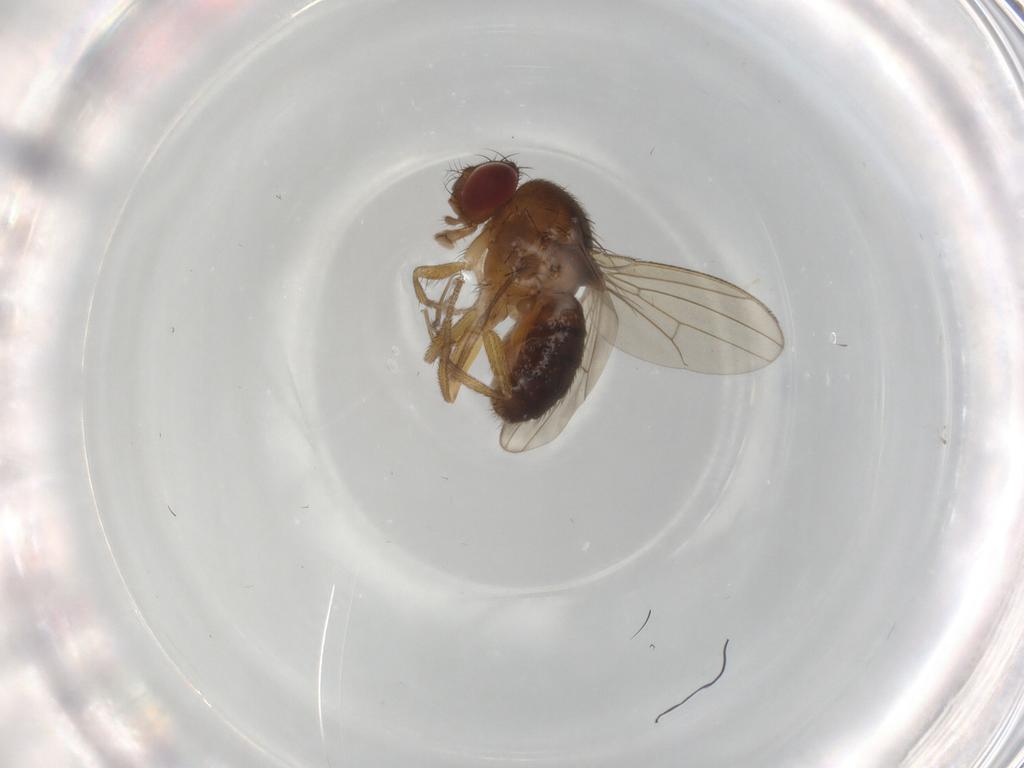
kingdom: Animalia
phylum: Arthropoda
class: Insecta
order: Diptera
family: Drosophilidae
